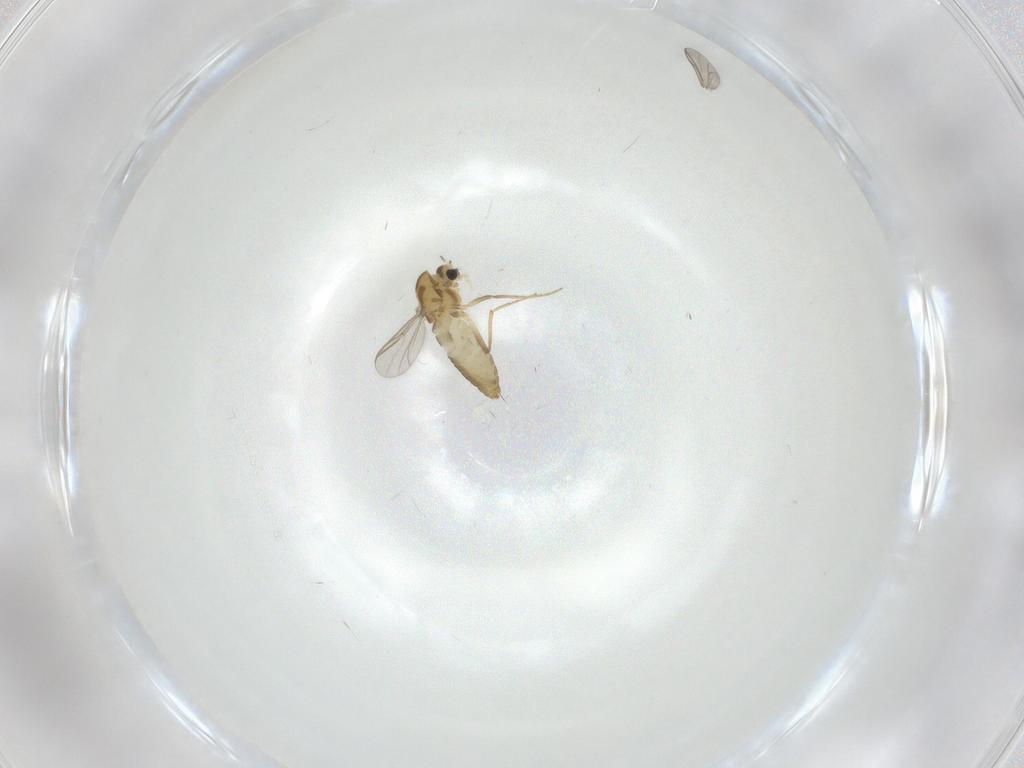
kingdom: Animalia
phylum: Arthropoda
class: Insecta
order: Diptera
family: Chironomidae
